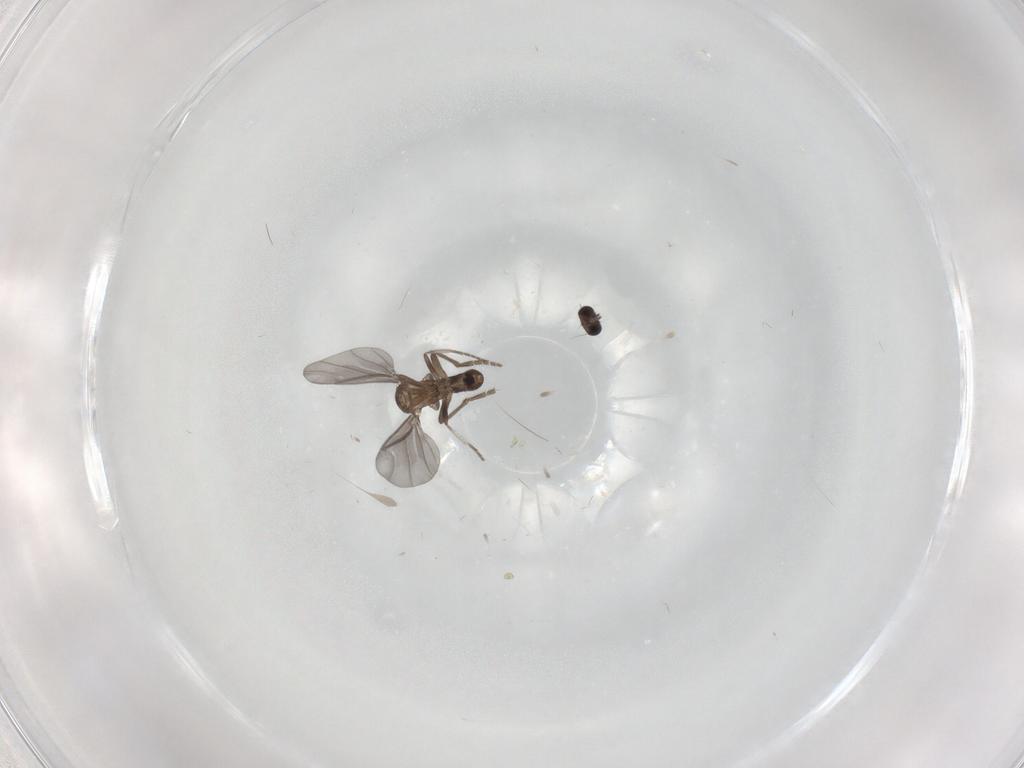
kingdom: Animalia
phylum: Arthropoda
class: Insecta
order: Diptera
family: Phoridae
